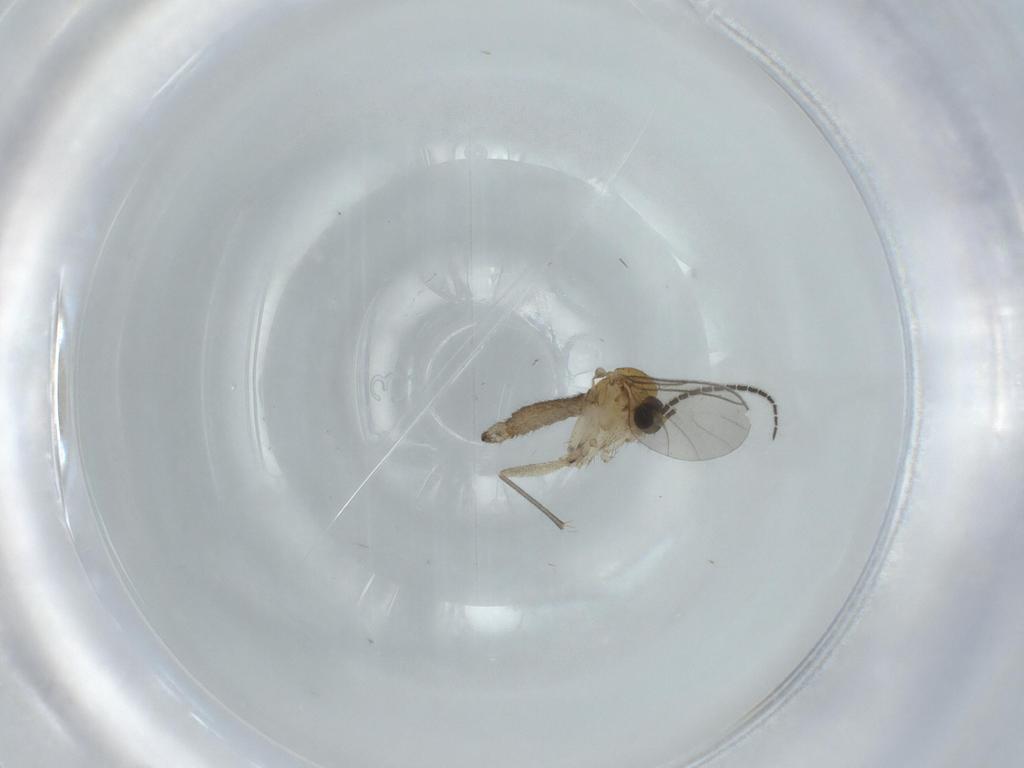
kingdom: Animalia
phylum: Arthropoda
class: Insecta
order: Diptera
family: Sciaridae
